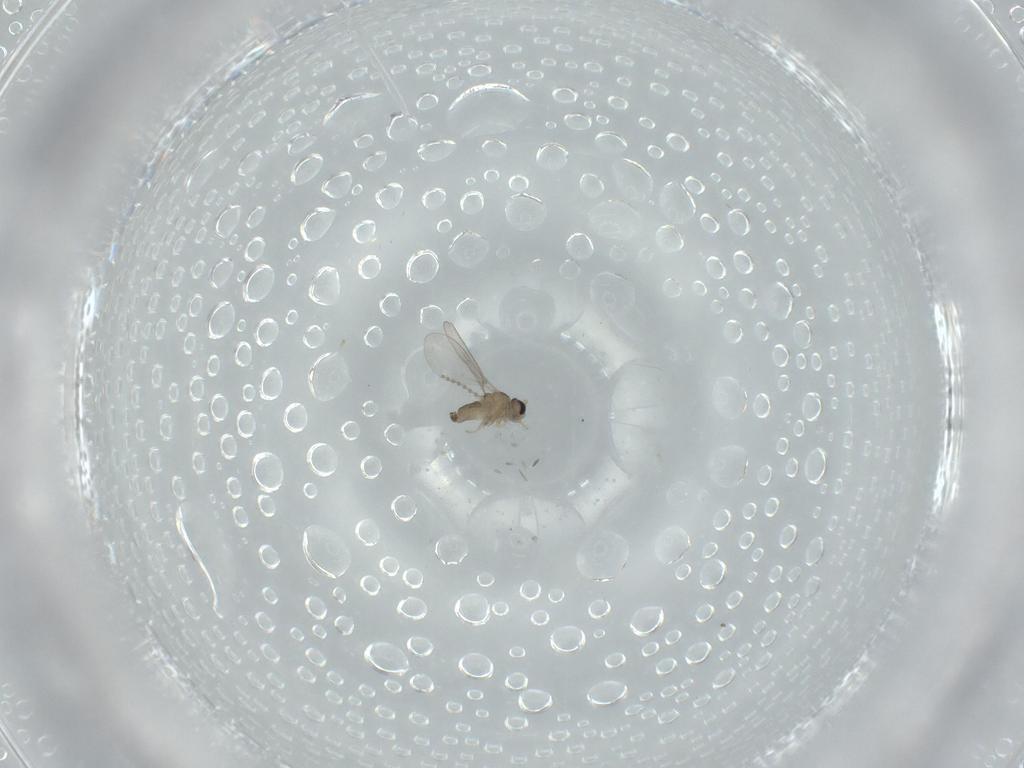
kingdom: Animalia
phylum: Arthropoda
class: Insecta
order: Diptera
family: Cecidomyiidae
